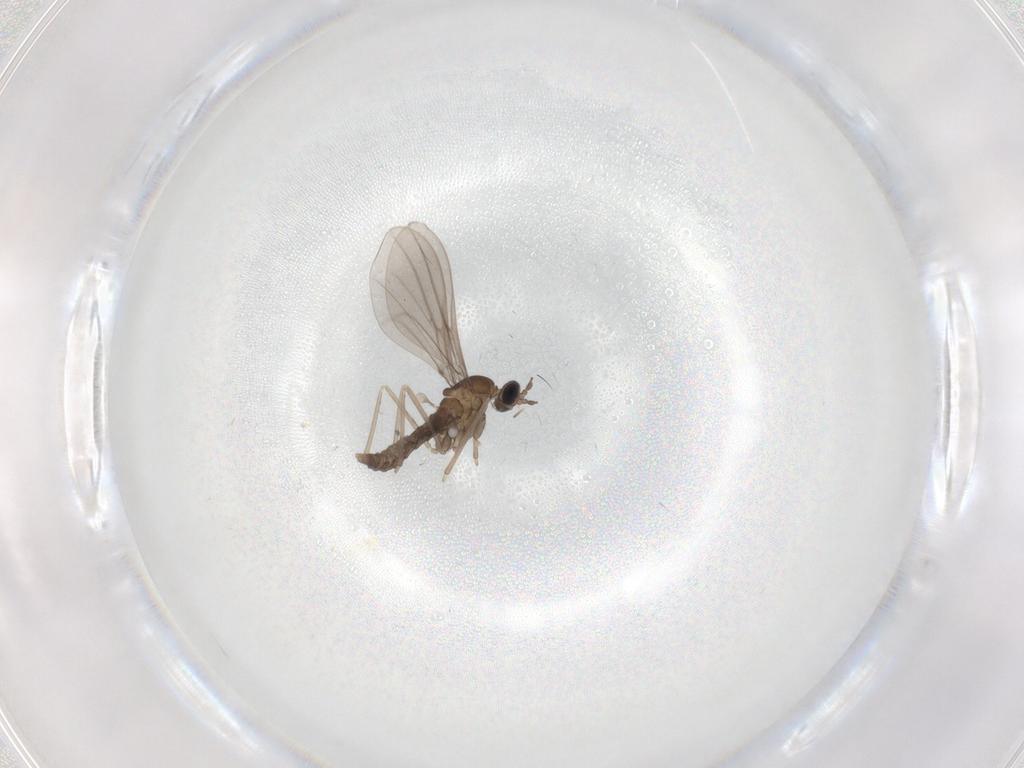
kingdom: Animalia
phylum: Arthropoda
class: Insecta
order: Diptera
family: Cecidomyiidae
